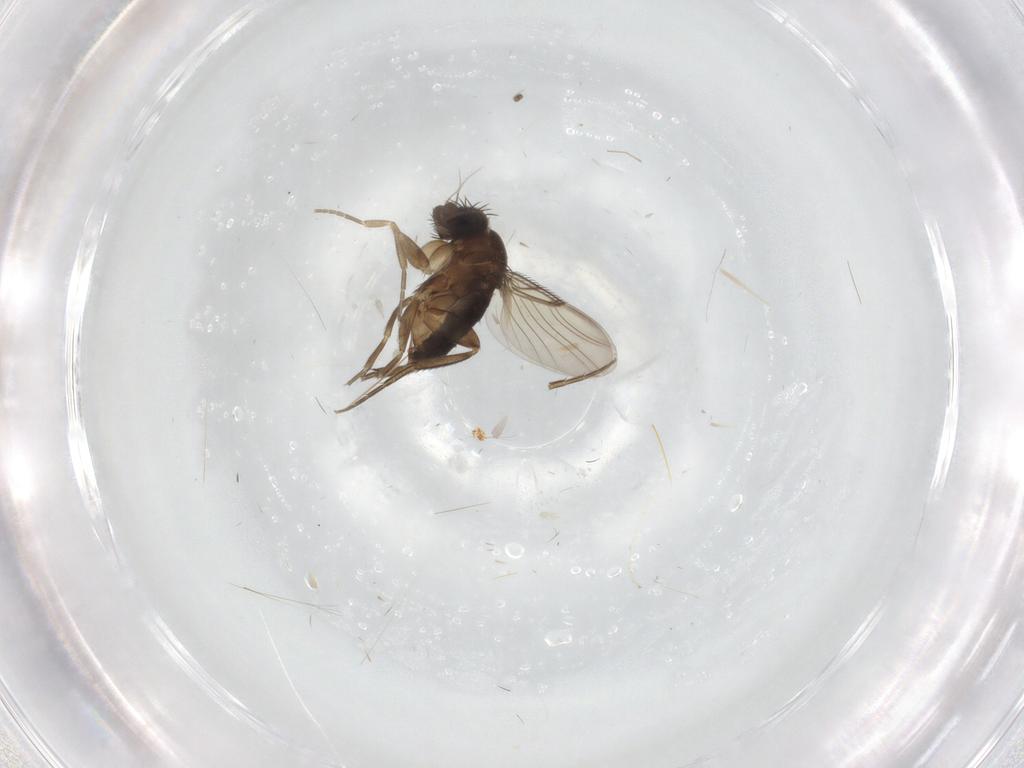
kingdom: Animalia
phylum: Arthropoda
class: Insecta
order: Diptera
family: Phoridae
